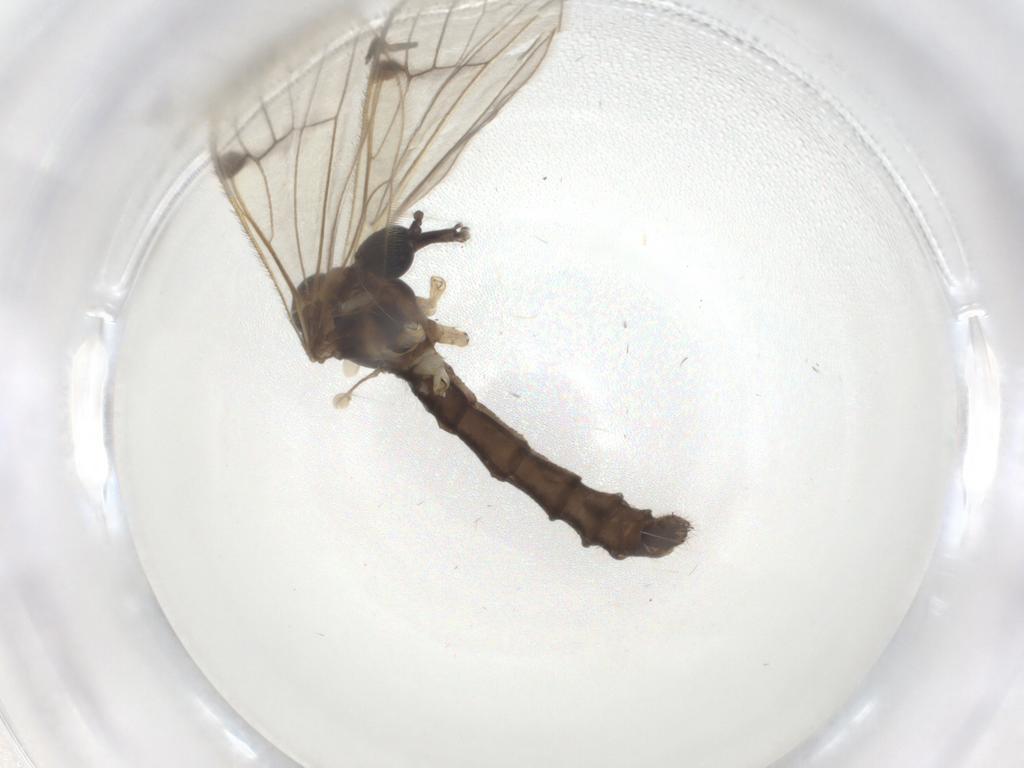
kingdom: Animalia
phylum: Arthropoda
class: Insecta
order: Diptera
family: Limoniidae
